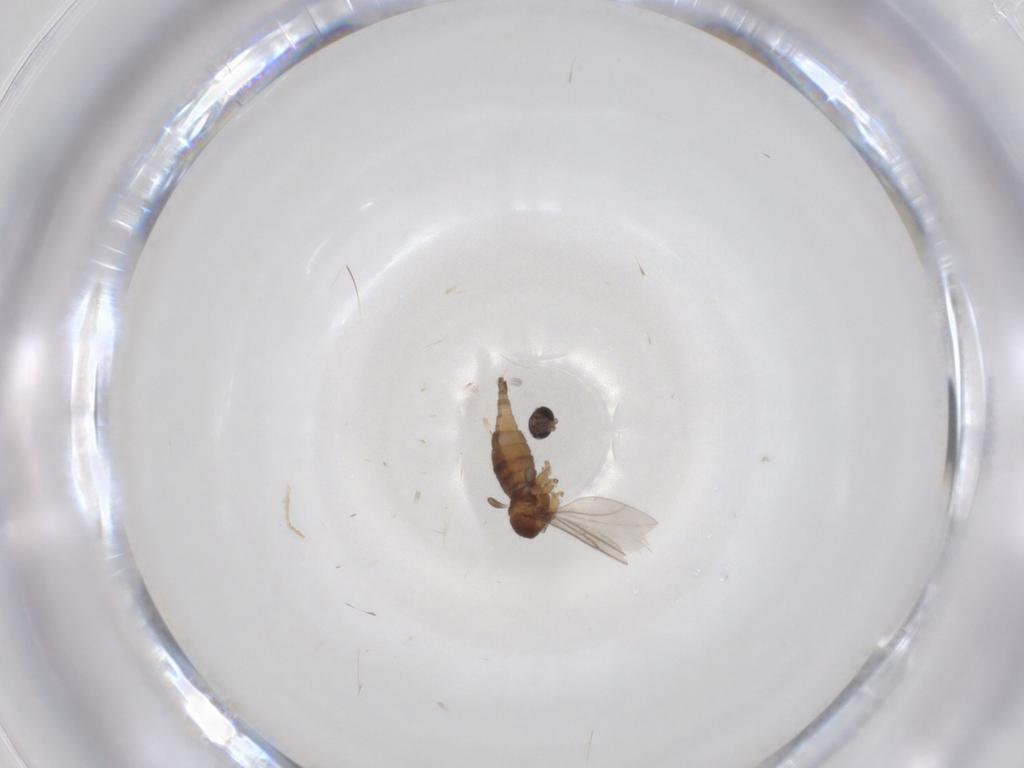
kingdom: Animalia
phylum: Arthropoda
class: Insecta
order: Diptera
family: Sciaridae
